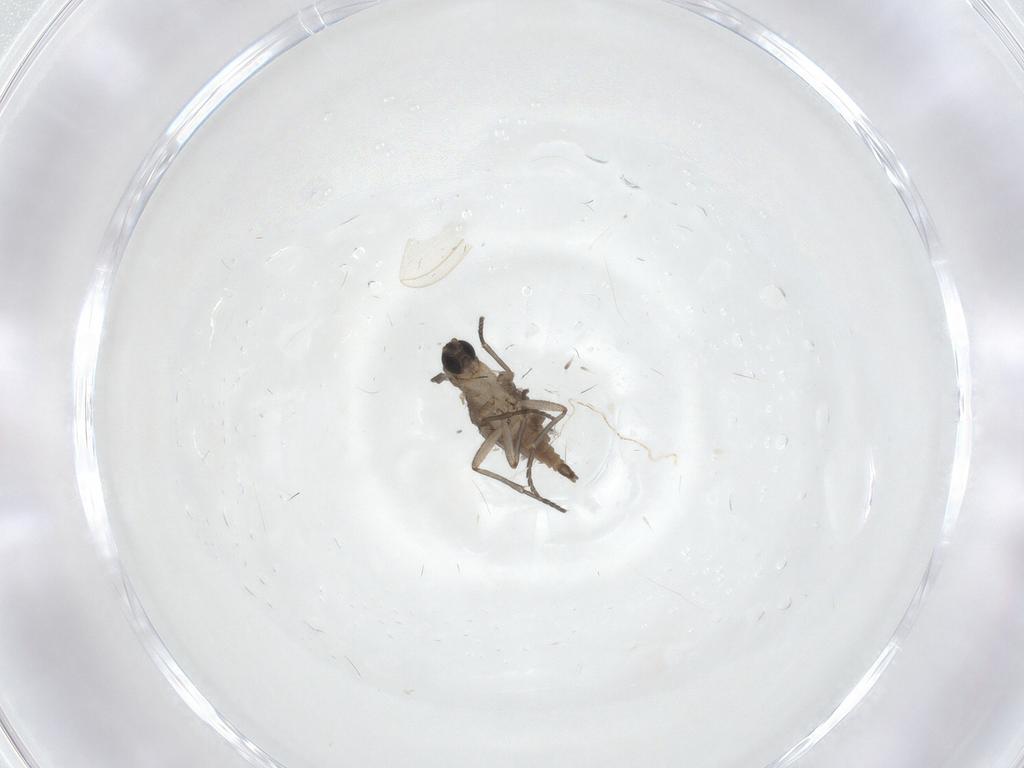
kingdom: Animalia
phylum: Arthropoda
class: Insecta
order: Diptera
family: Sciaridae
